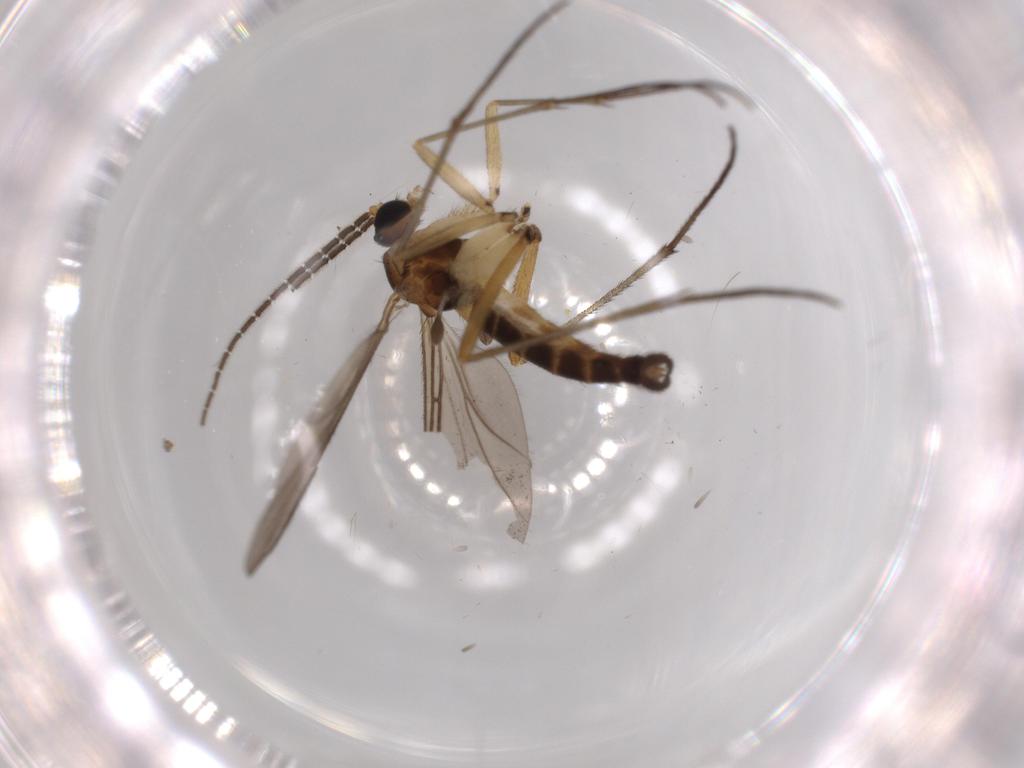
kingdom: Animalia
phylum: Arthropoda
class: Insecta
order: Diptera
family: Sciaridae
